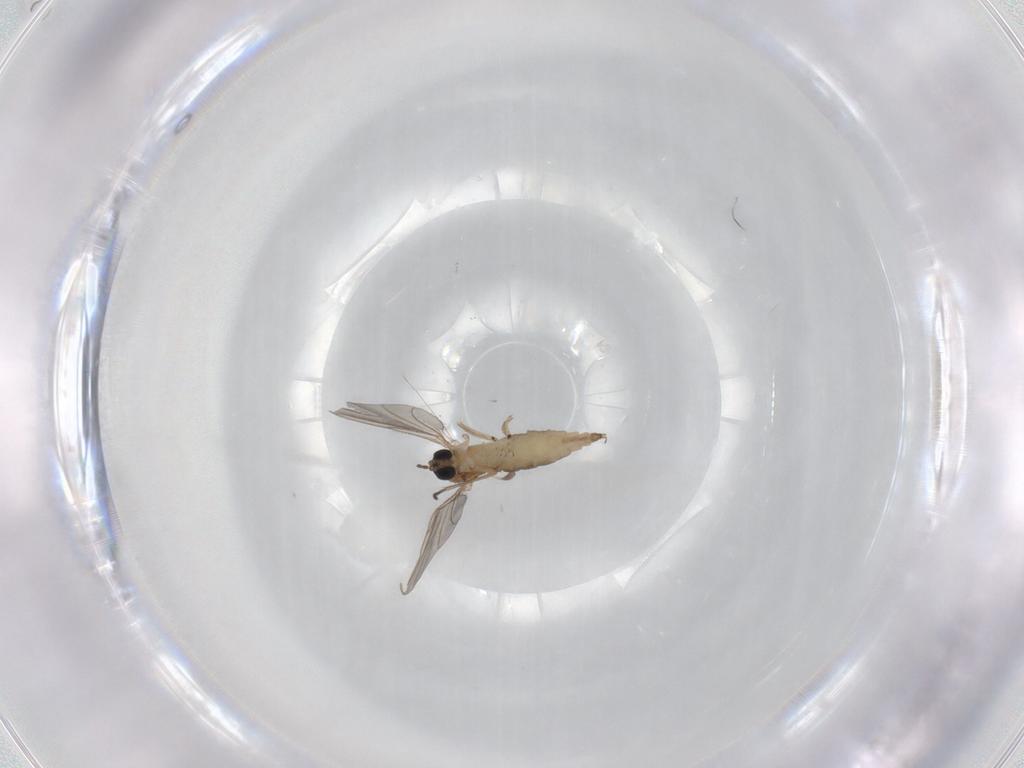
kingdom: Animalia
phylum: Arthropoda
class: Insecta
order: Diptera
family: Sciaridae
